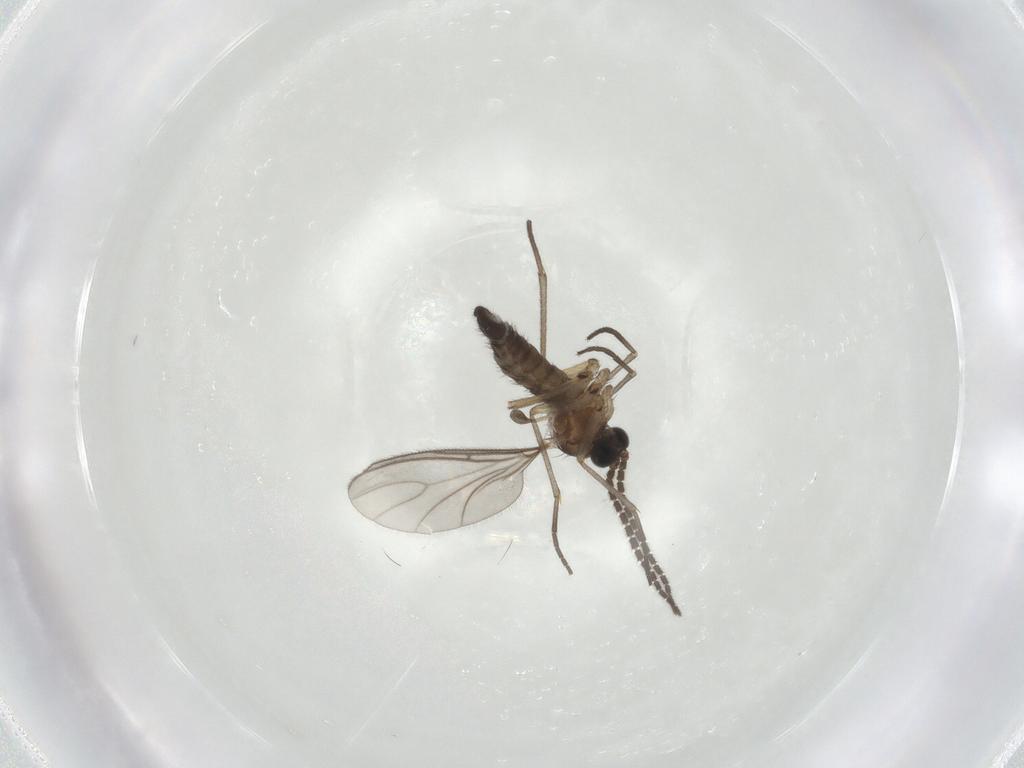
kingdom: Animalia
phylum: Arthropoda
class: Insecta
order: Diptera
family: Sciaridae
